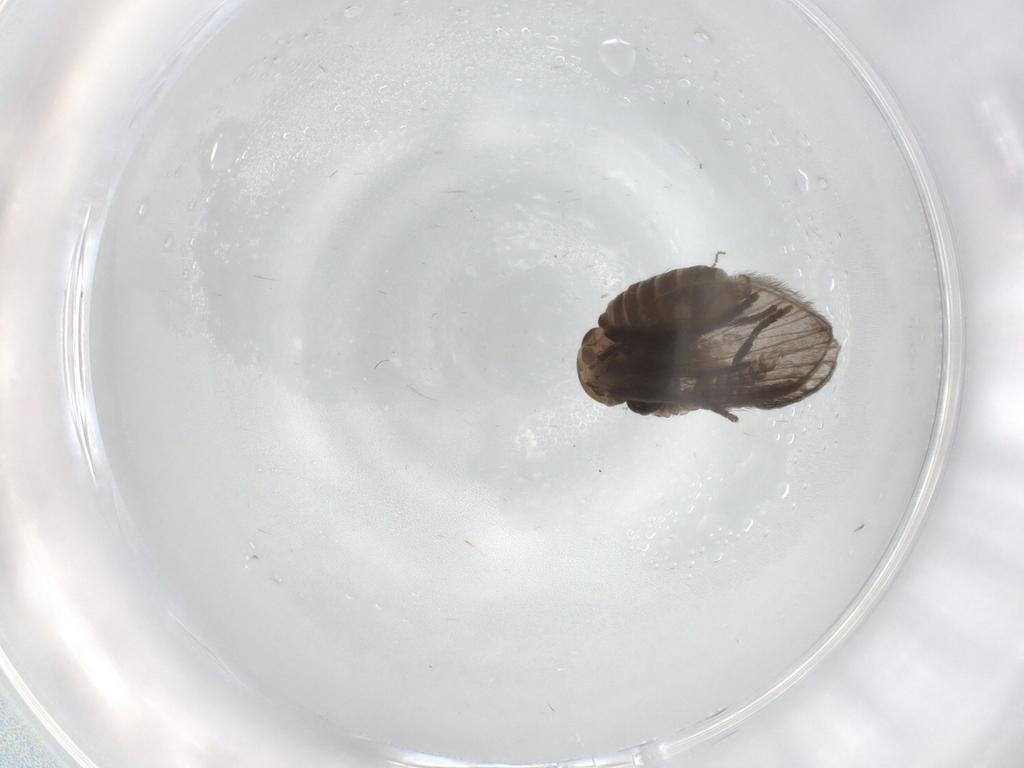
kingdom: Animalia
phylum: Arthropoda
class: Insecta
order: Diptera
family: Psychodidae
